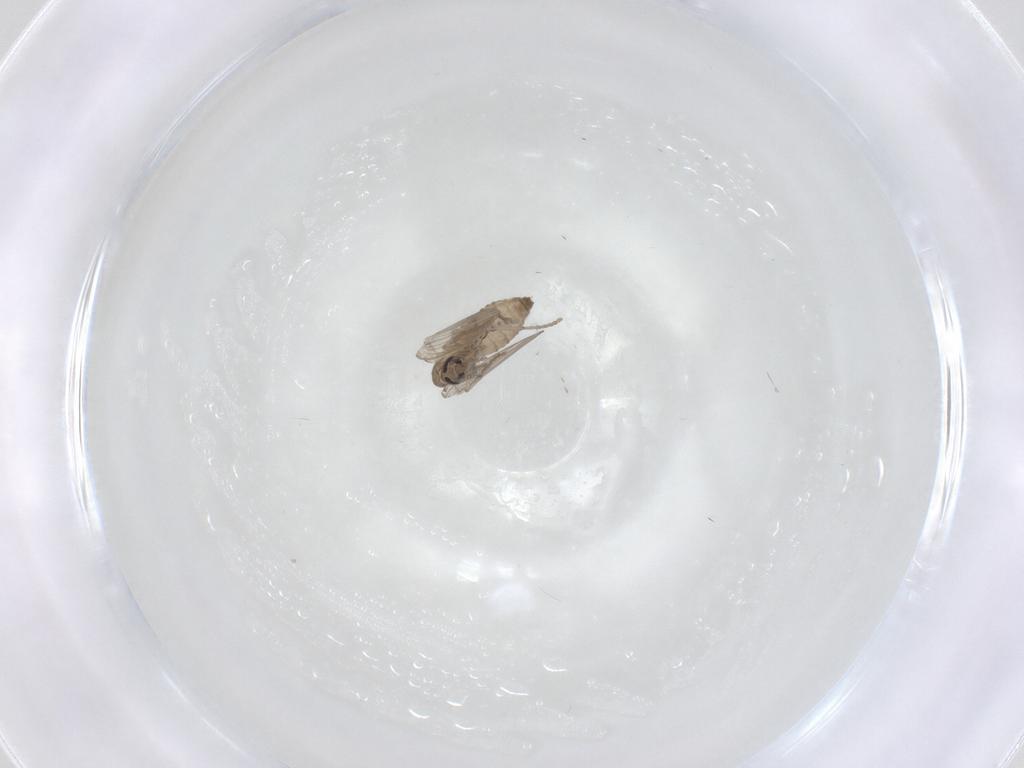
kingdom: Animalia
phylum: Arthropoda
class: Insecta
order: Diptera
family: Psychodidae
